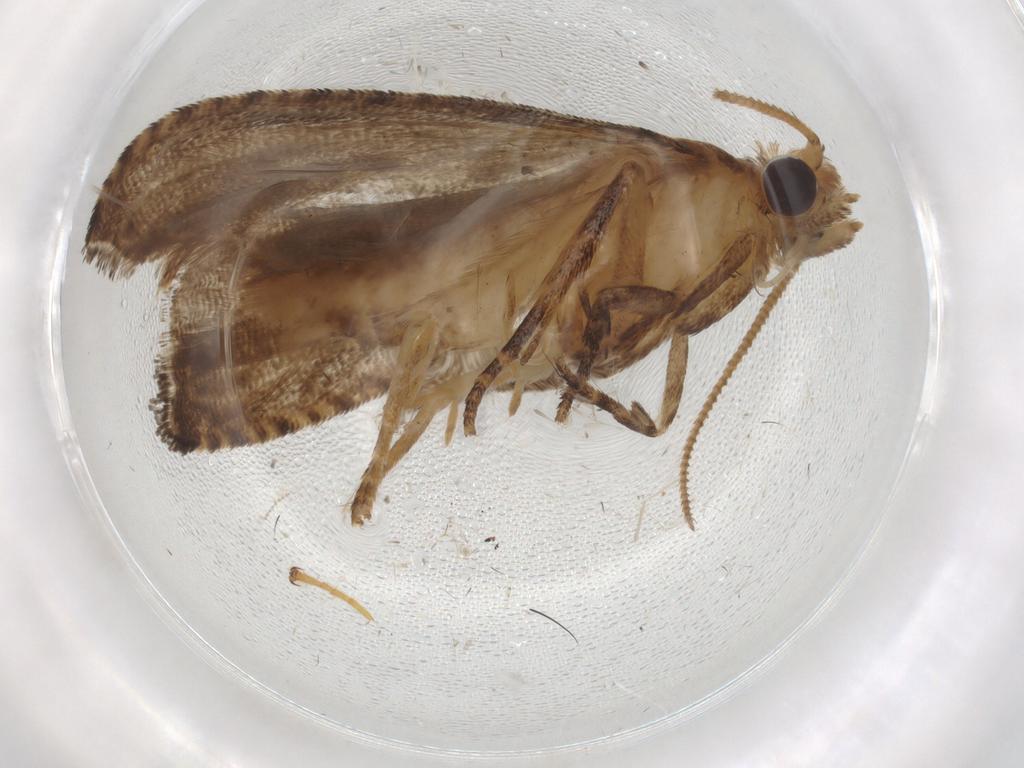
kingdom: Animalia
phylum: Arthropoda
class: Insecta
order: Lepidoptera
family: Gelechiidae
